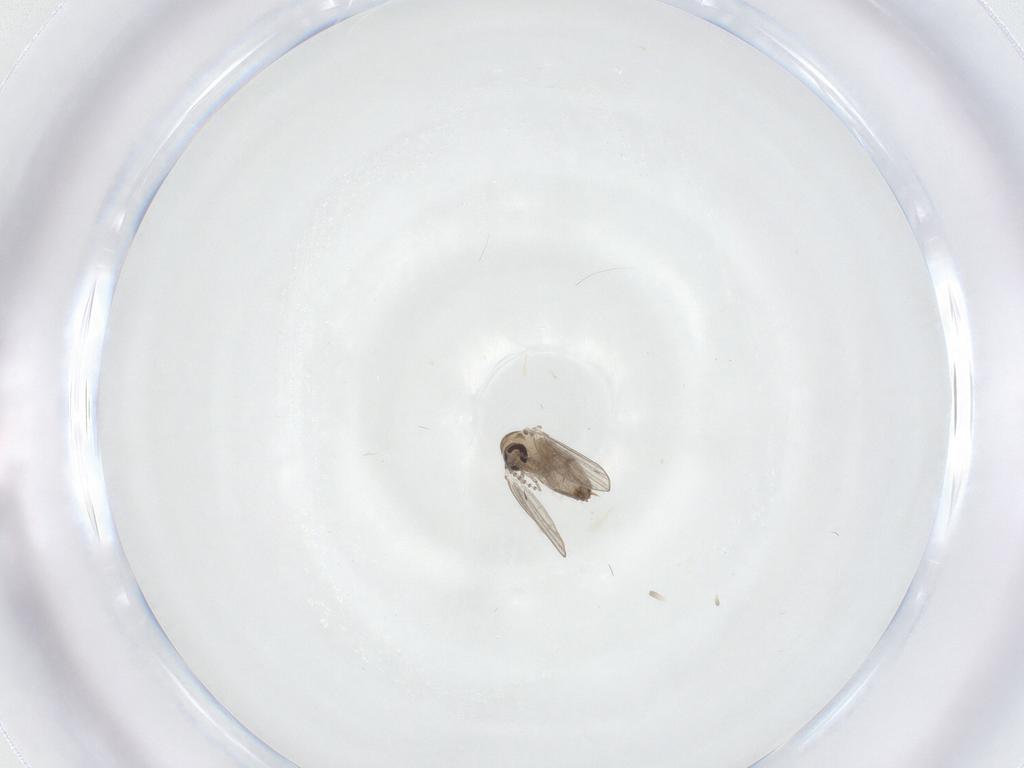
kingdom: Animalia
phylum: Arthropoda
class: Insecta
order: Diptera
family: Psychodidae
